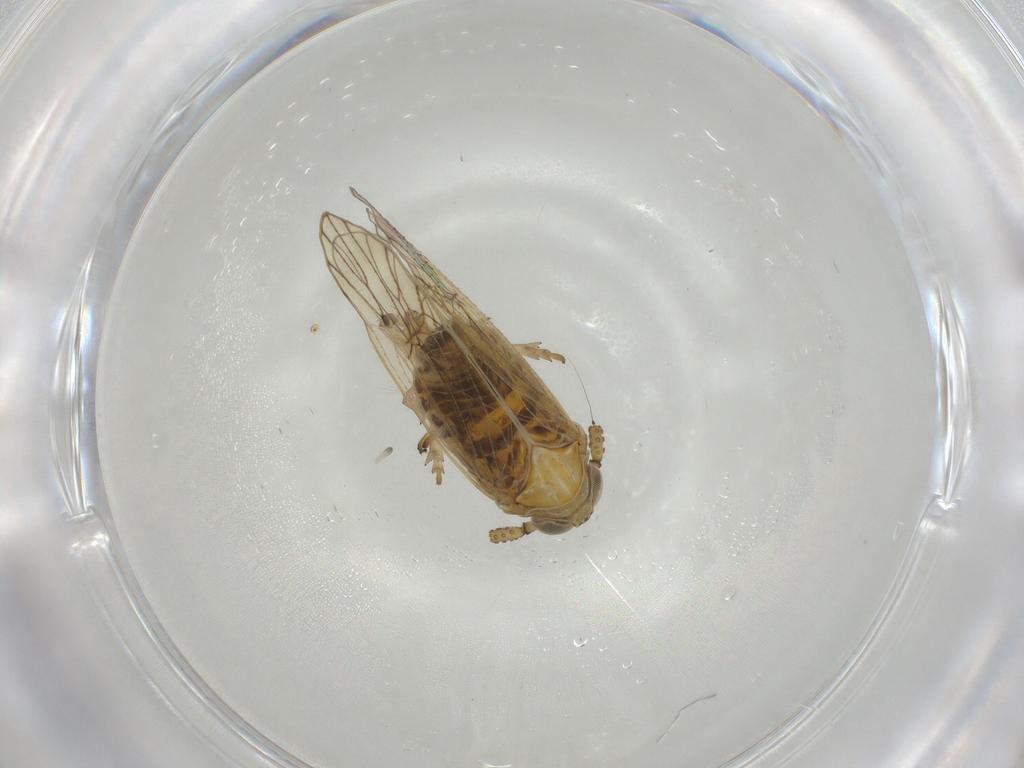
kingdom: Animalia
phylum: Arthropoda
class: Insecta
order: Hemiptera
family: Delphacidae
